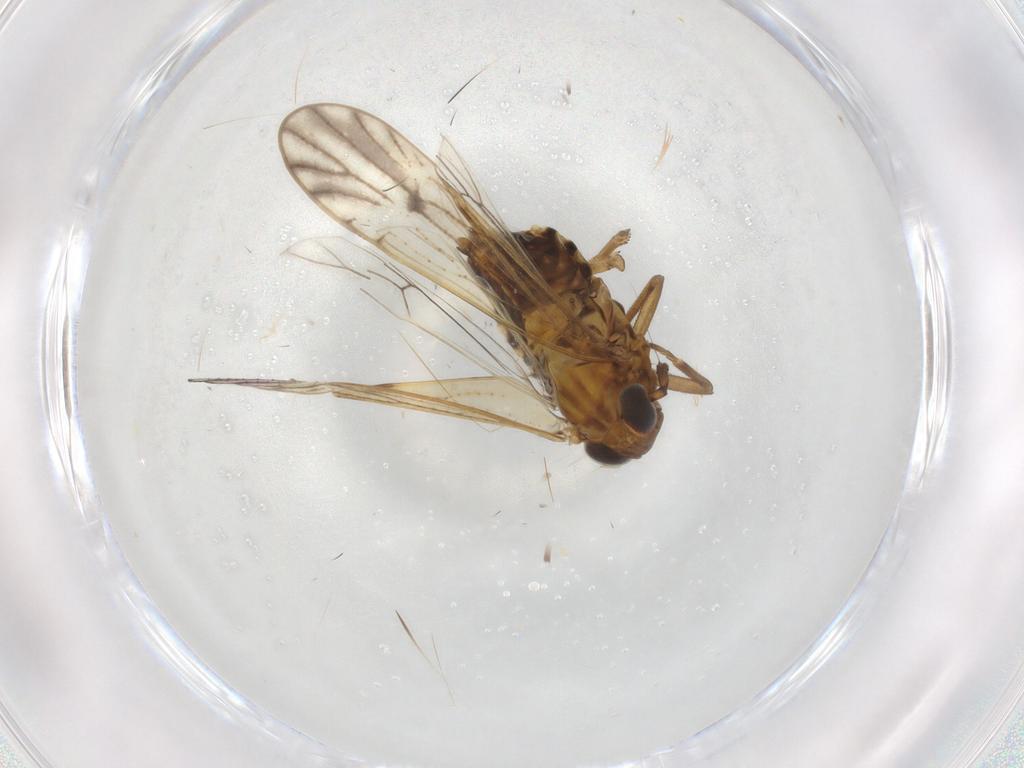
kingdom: Animalia
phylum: Arthropoda
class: Insecta
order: Hemiptera
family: Delphacidae
